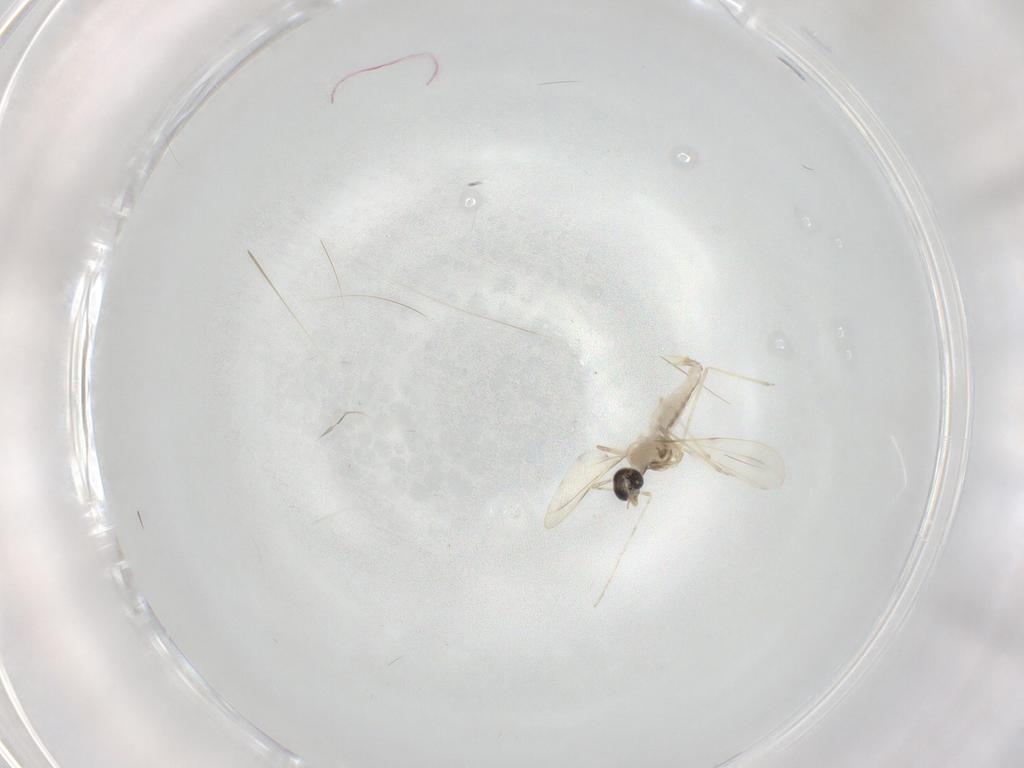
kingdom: Animalia
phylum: Arthropoda
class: Insecta
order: Diptera
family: Cecidomyiidae
